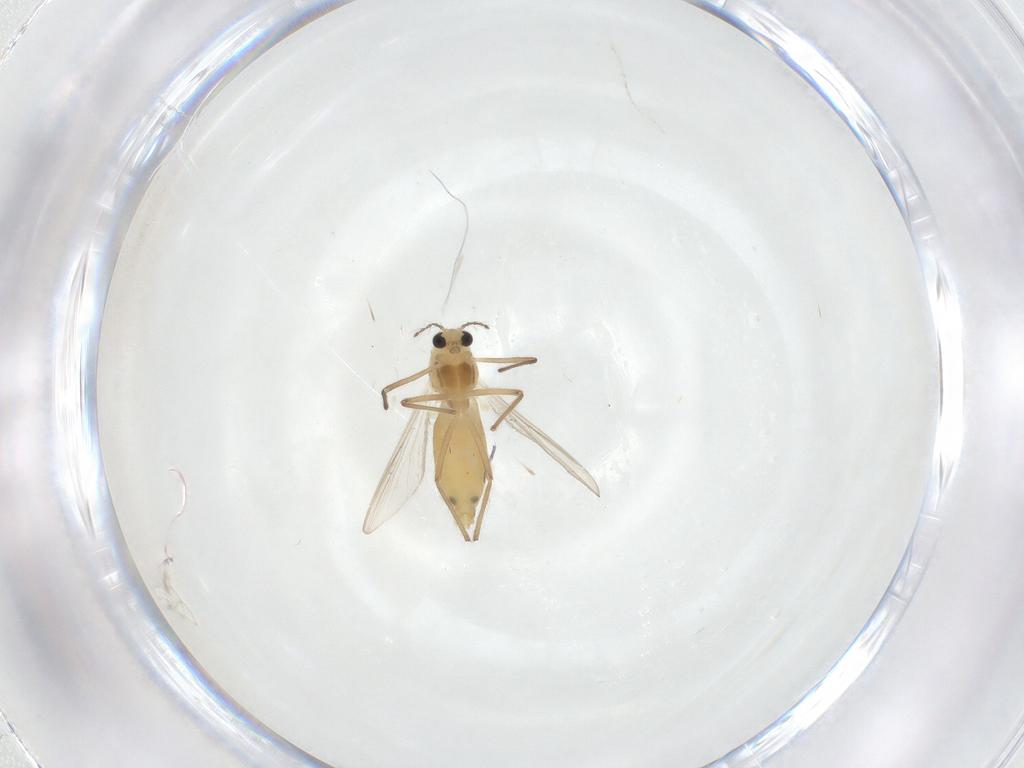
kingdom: Animalia
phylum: Arthropoda
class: Insecta
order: Diptera
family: Chironomidae
